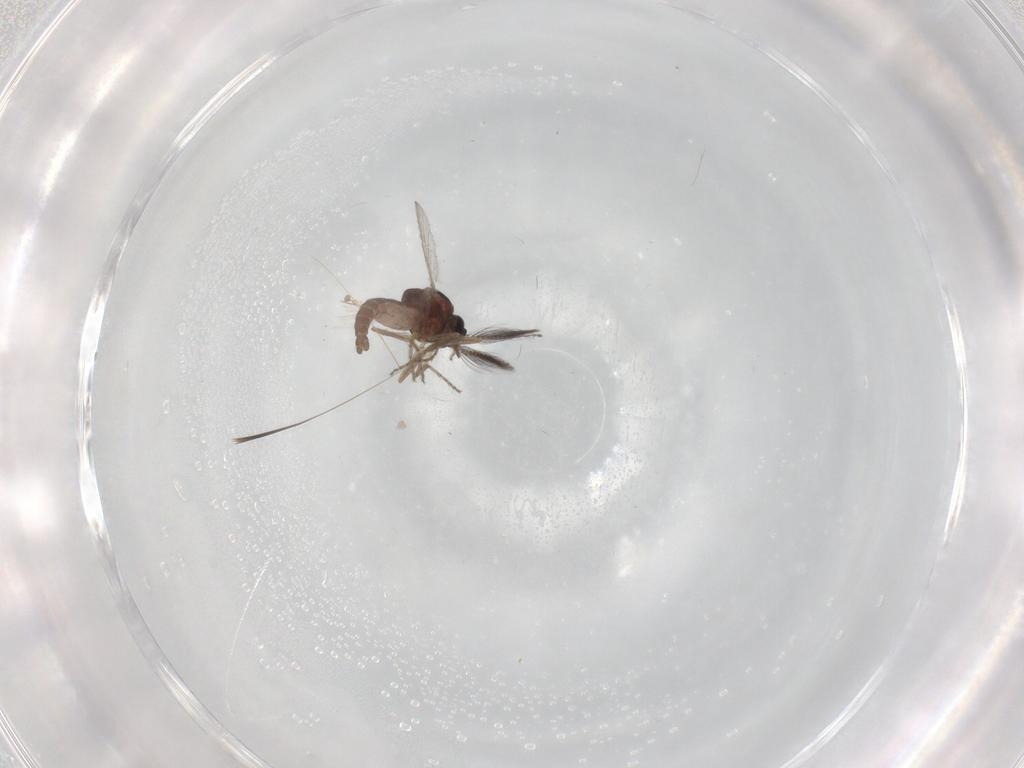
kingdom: Animalia
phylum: Arthropoda
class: Insecta
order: Diptera
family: Ceratopogonidae
